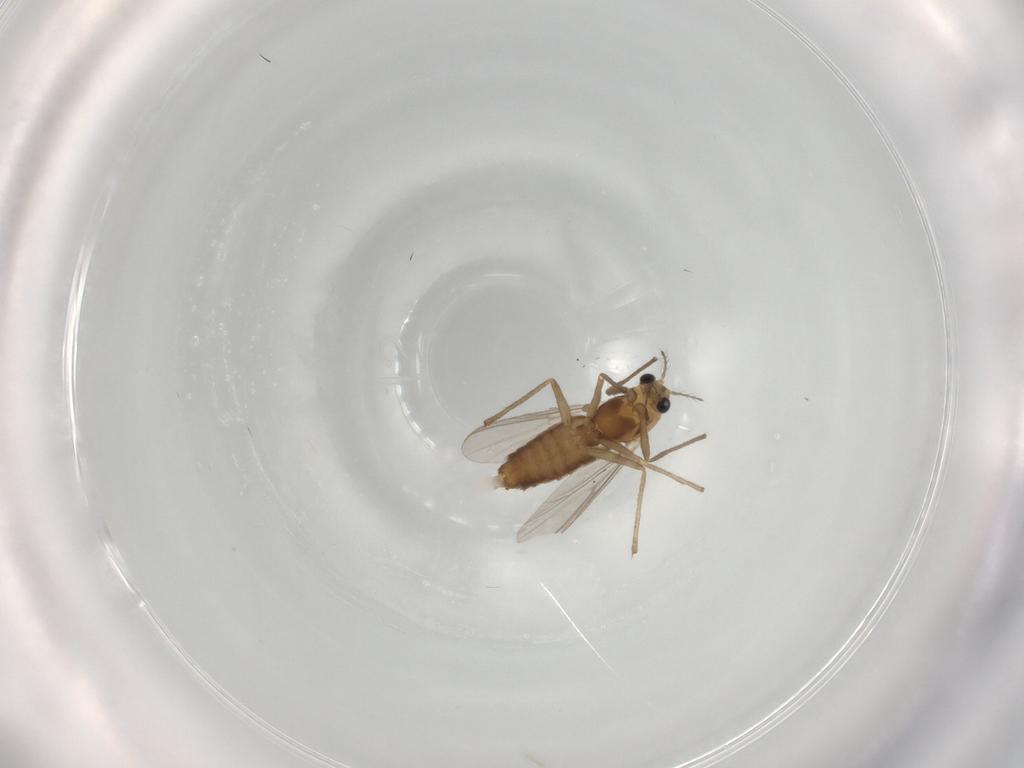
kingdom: Animalia
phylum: Arthropoda
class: Insecta
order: Diptera
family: Chironomidae
